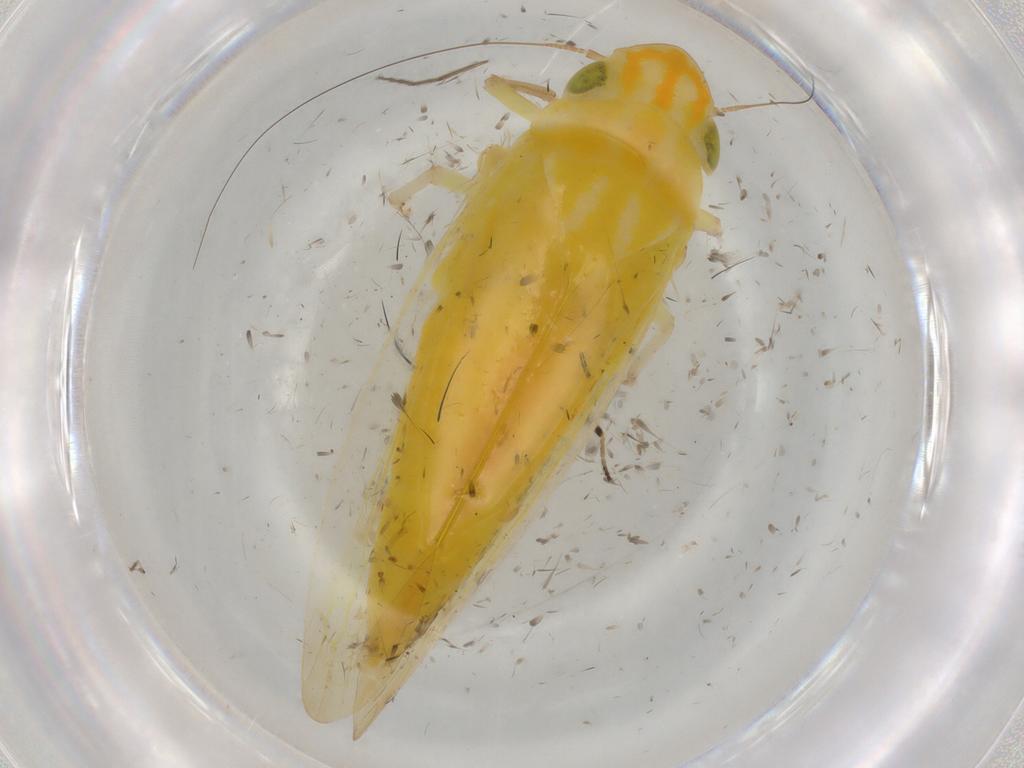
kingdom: Animalia
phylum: Arthropoda
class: Insecta
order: Hemiptera
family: Cicadellidae
